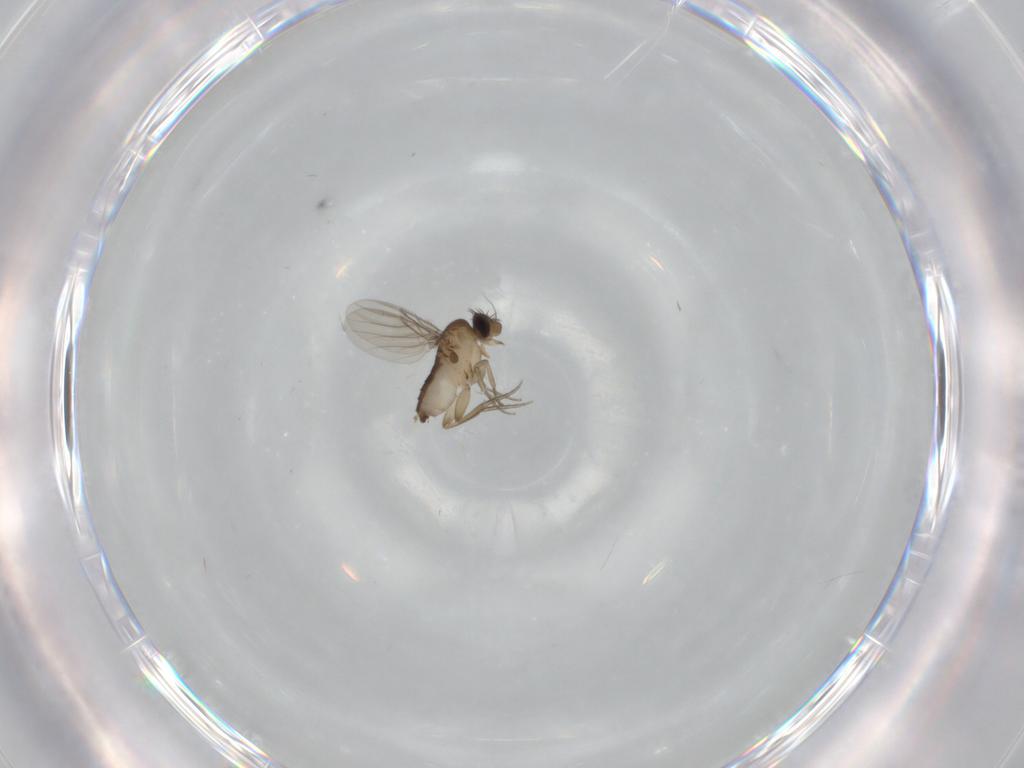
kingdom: Animalia
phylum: Arthropoda
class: Insecta
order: Diptera
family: Phoridae
